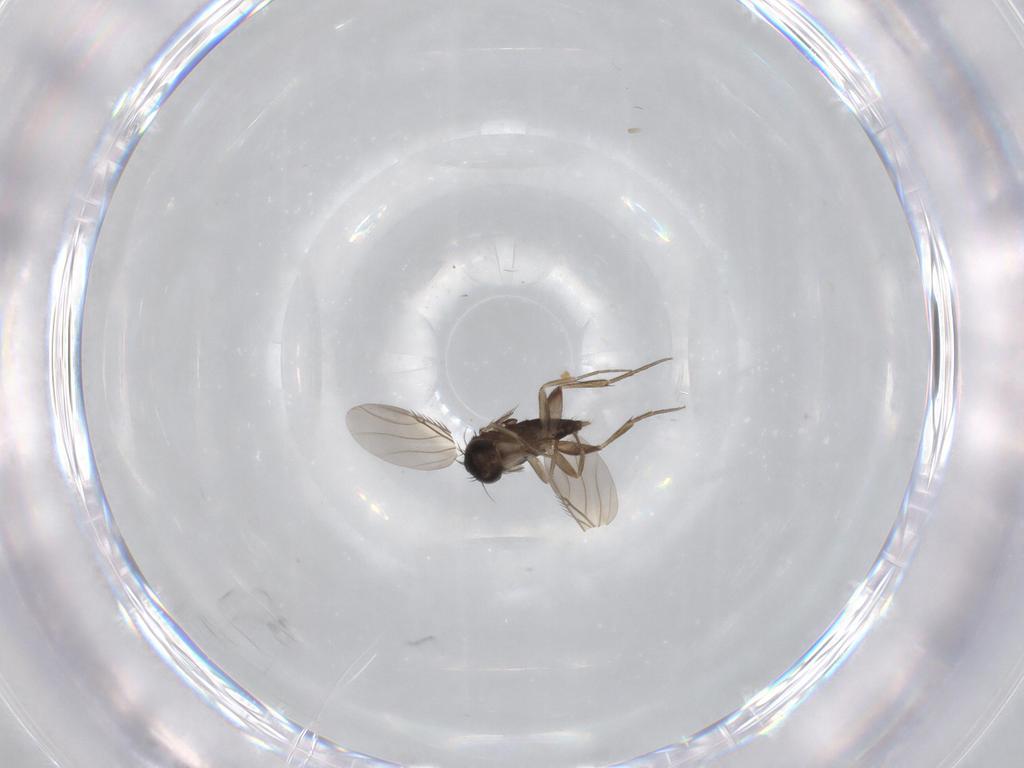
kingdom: Animalia
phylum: Arthropoda
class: Insecta
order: Diptera
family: Phoridae
